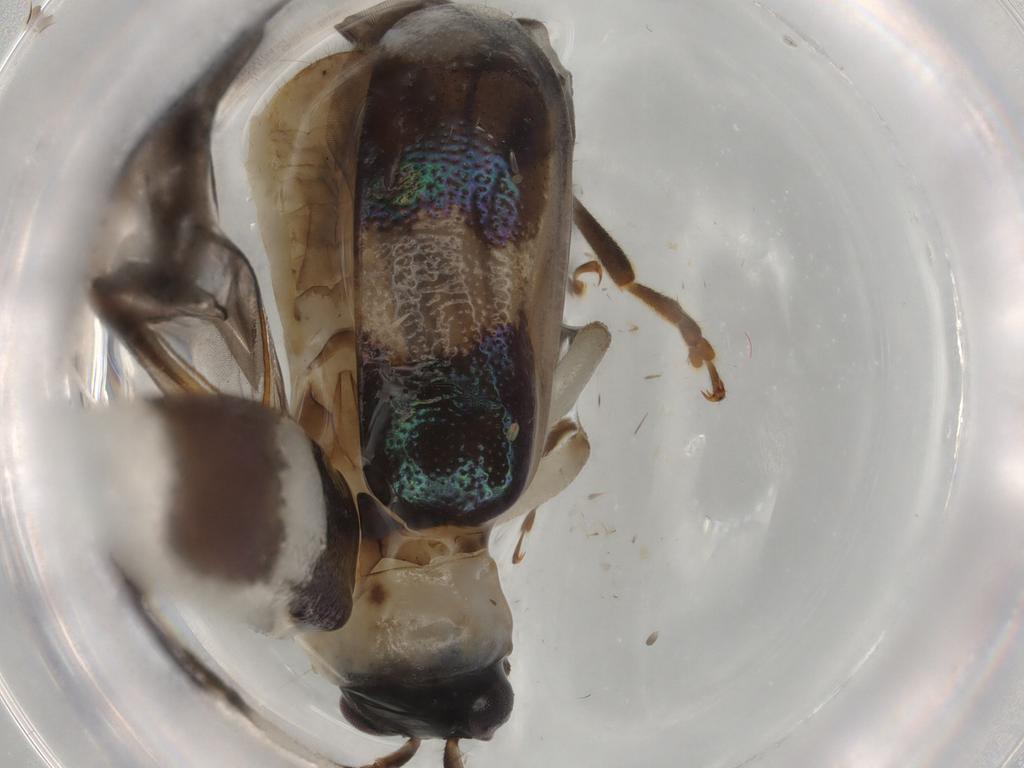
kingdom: Animalia
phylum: Arthropoda
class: Insecta
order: Coleoptera
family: Chrysomelidae
